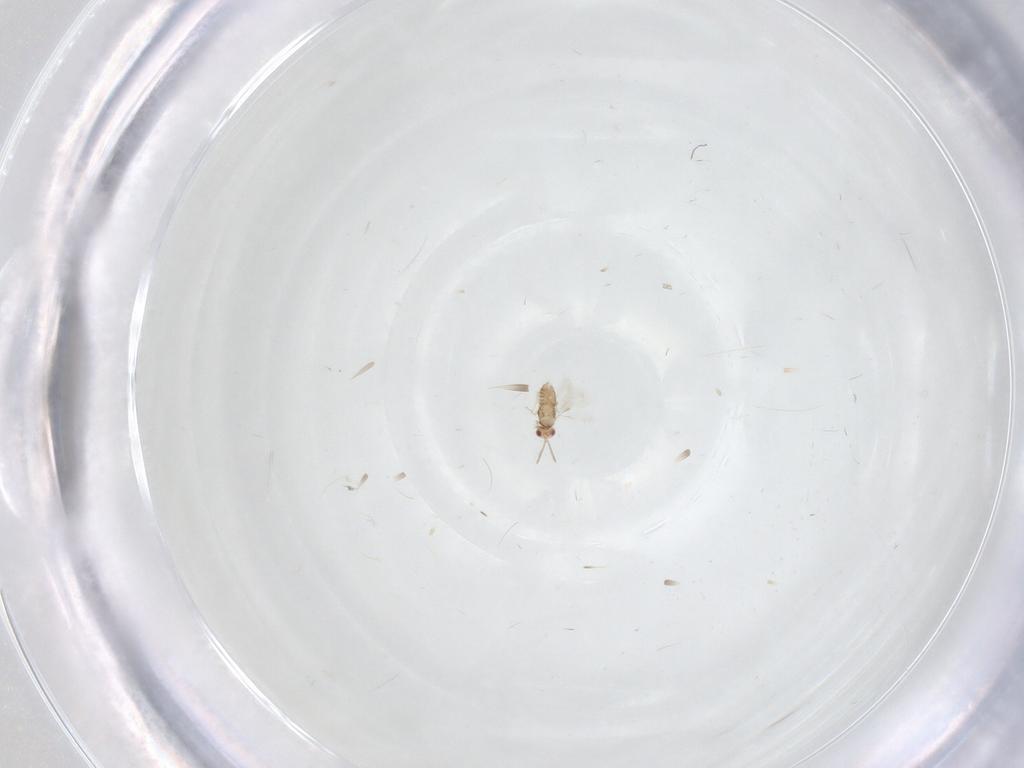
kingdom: Animalia
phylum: Arthropoda
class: Insecta
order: Hymenoptera
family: Aphelinidae
